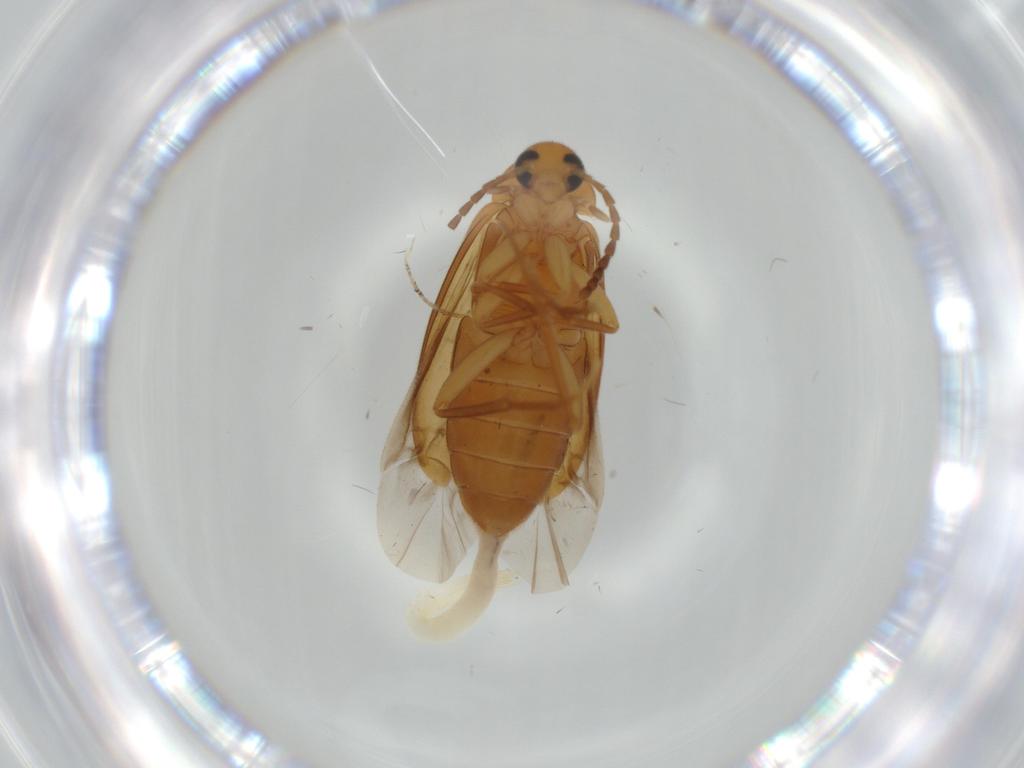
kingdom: Animalia
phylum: Arthropoda
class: Insecta
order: Coleoptera
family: Scraptiidae
